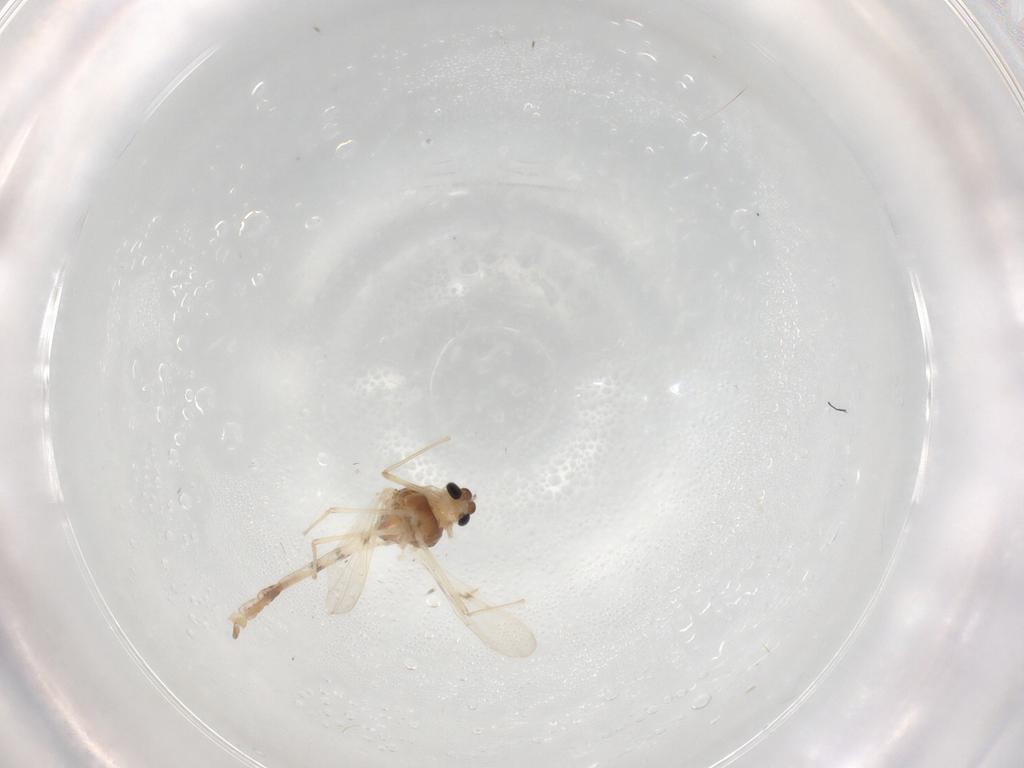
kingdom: Animalia
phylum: Arthropoda
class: Insecta
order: Diptera
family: Chironomidae
